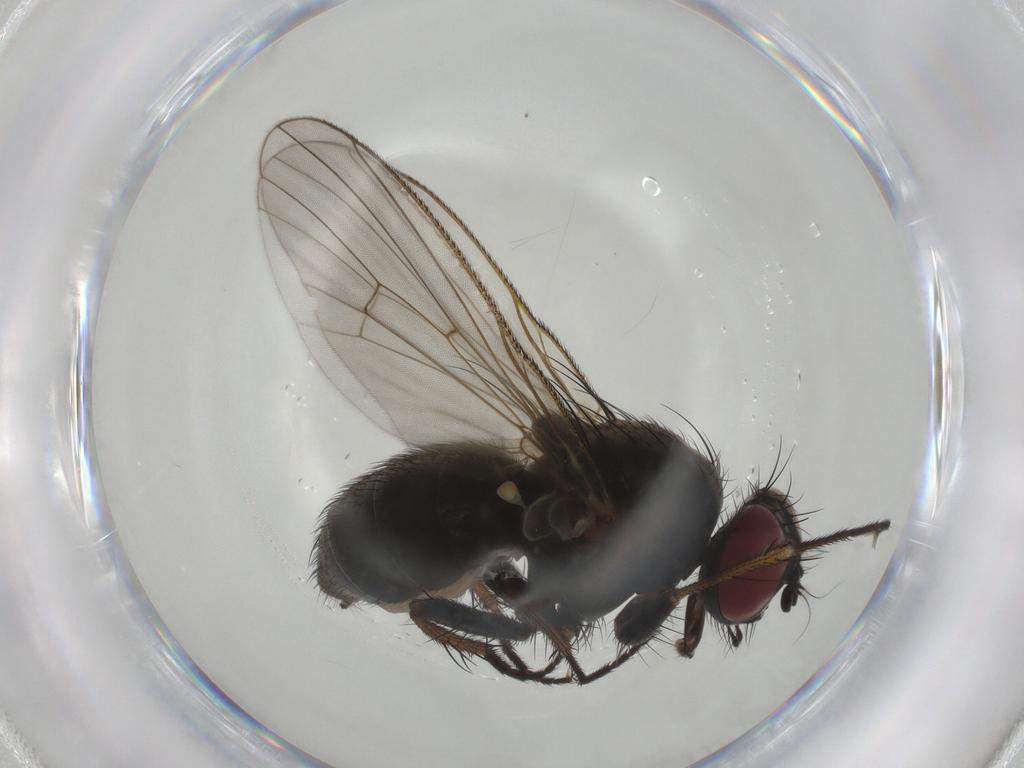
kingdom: Animalia
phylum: Arthropoda
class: Insecta
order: Diptera
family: Muscidae
